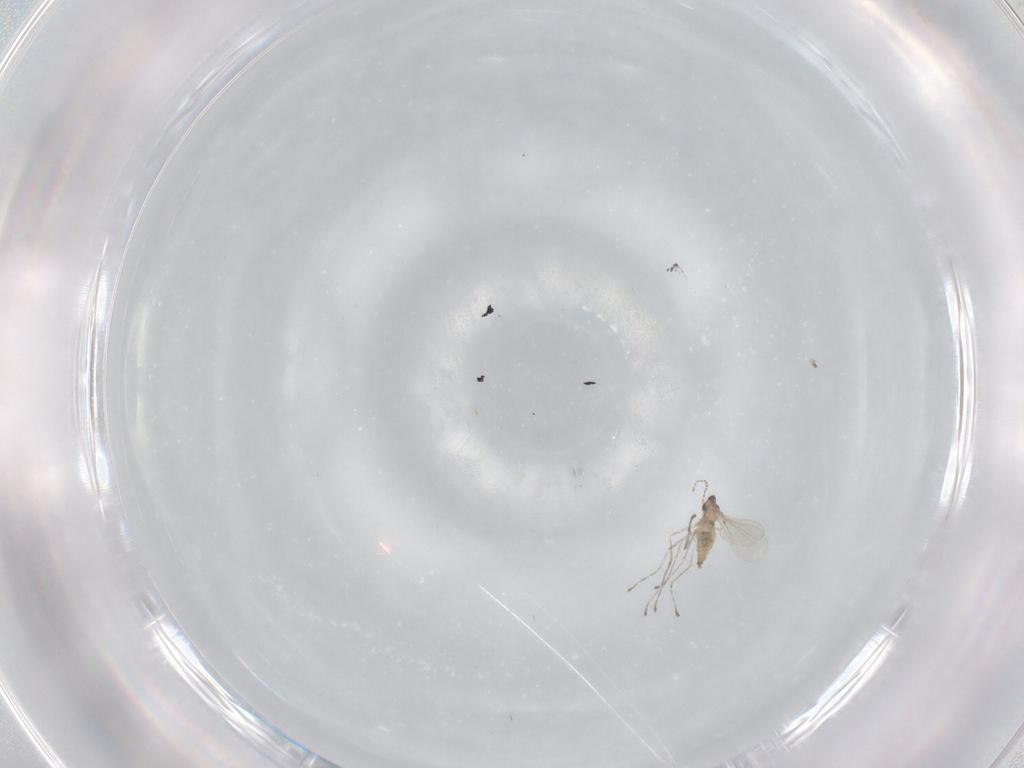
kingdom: Animalia
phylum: Arthropoda
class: Insecta
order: Diptera
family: Cecidomyiidae
